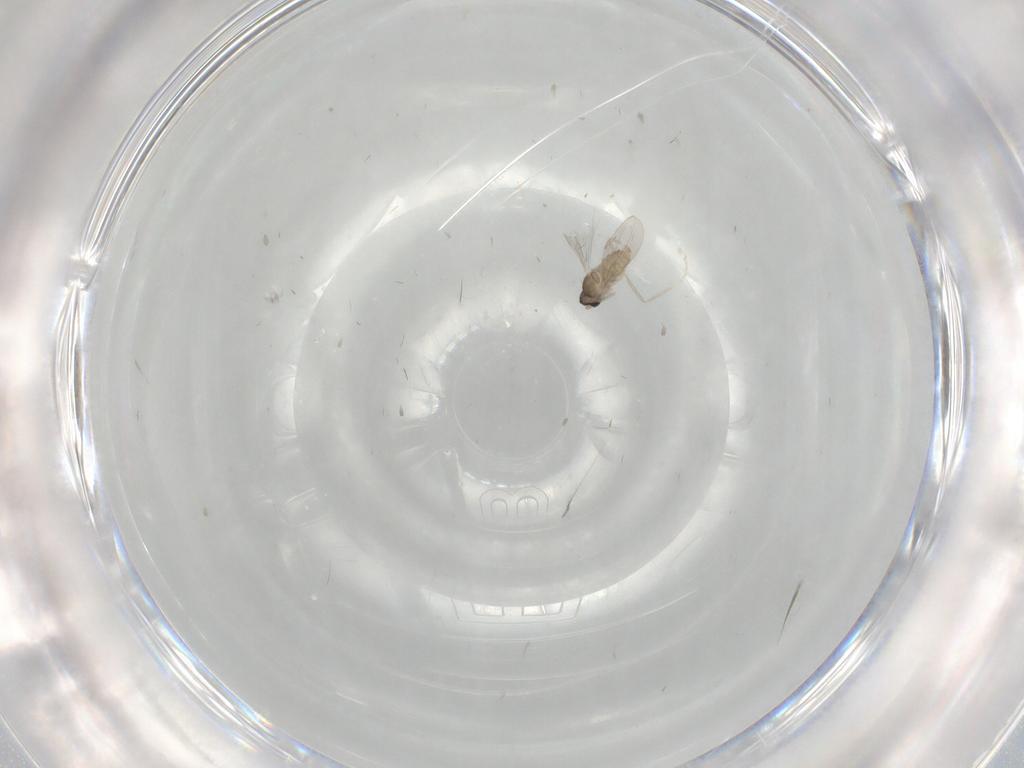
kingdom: Animalia
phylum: Arthropoda
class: Insecta
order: Diptera
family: Cecidomyiidae
